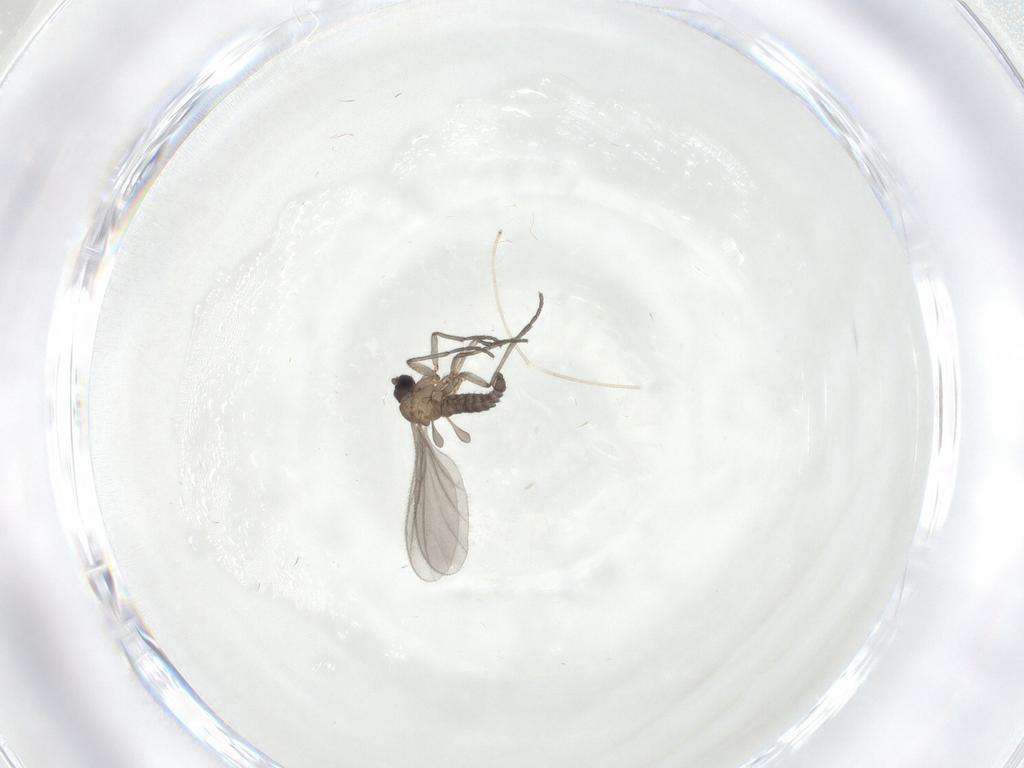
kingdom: Animalia
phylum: Arthropoda
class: Insecta
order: Diptera
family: Sciaridae
